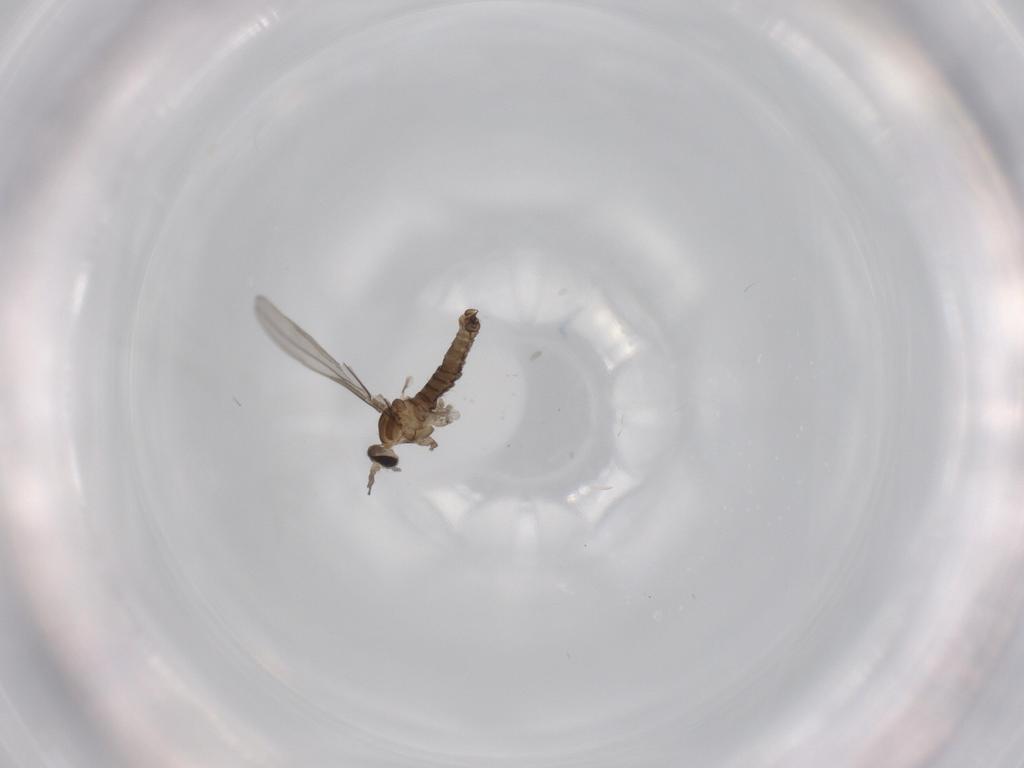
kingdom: Animalia
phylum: Arthropoda
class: Insecta
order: Diptera
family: Cecidomyiidae
